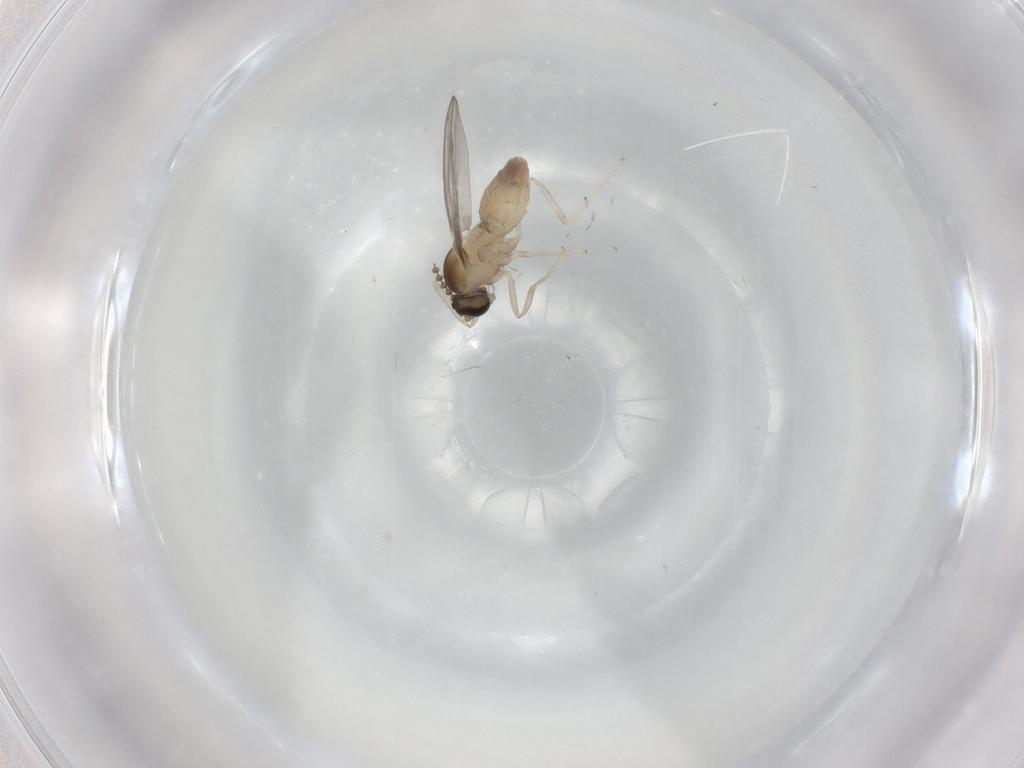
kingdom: Animalia
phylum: Arthropoda
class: Insecta
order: Diptera
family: Cecidomyiidae
